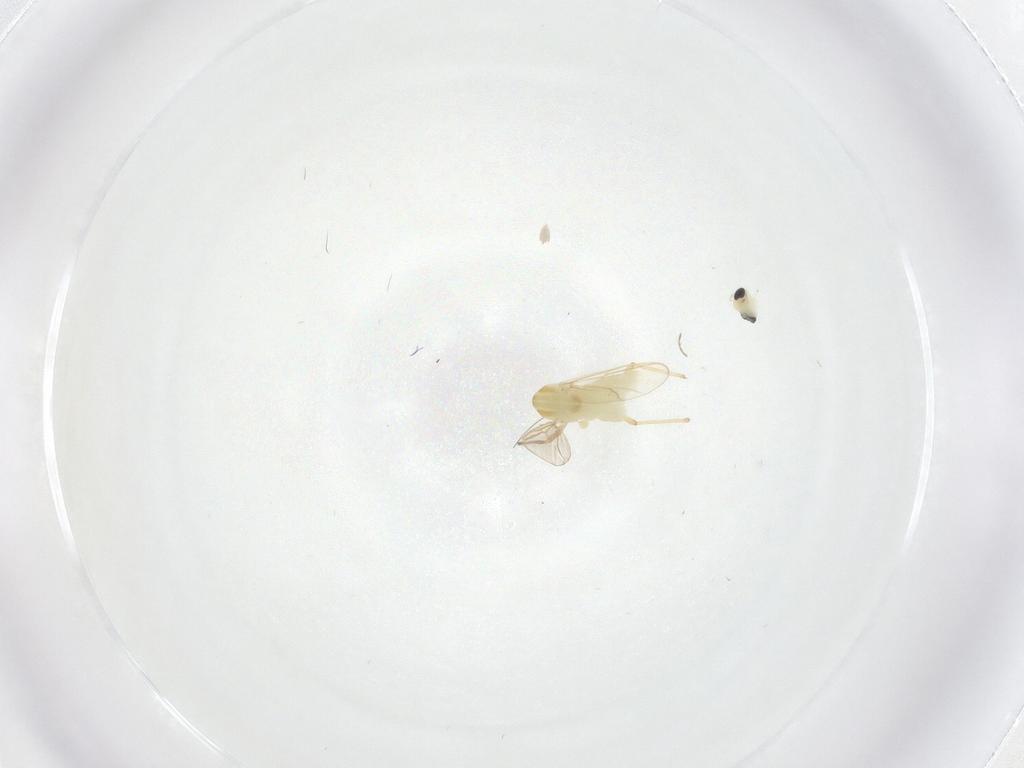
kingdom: Animalia
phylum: Arthropoda
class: Insecta
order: Diptera
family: Chironomidae
